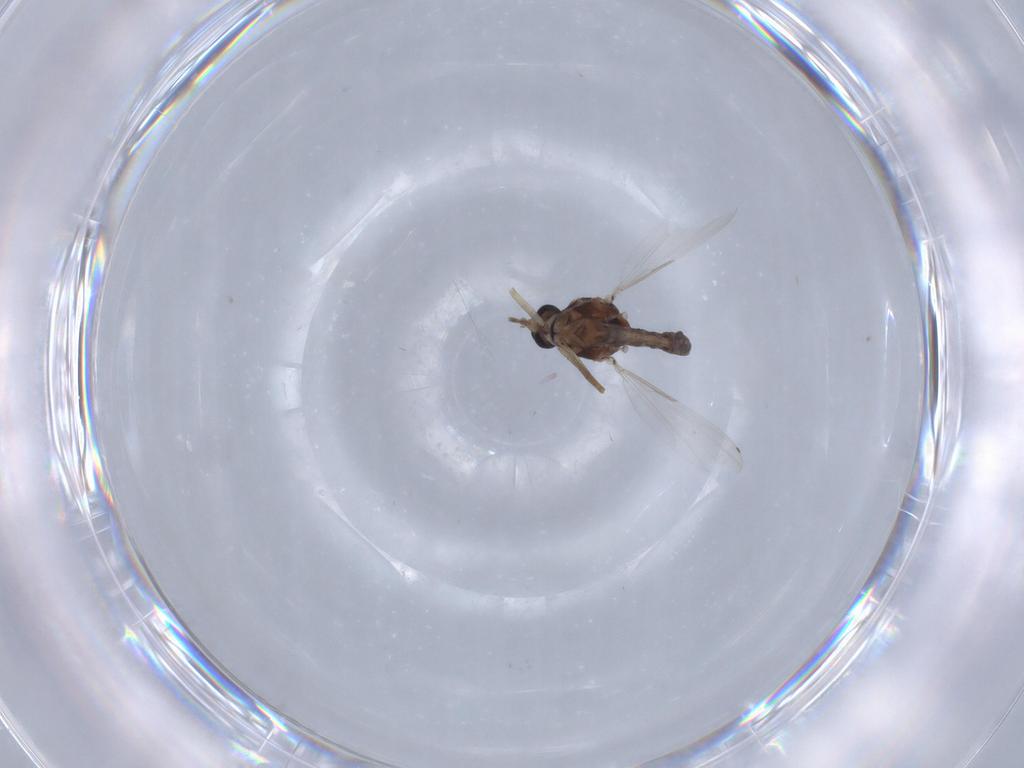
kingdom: Animalia
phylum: Arthropoda
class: Insecta
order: Diptera
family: Ceratopogonidae
